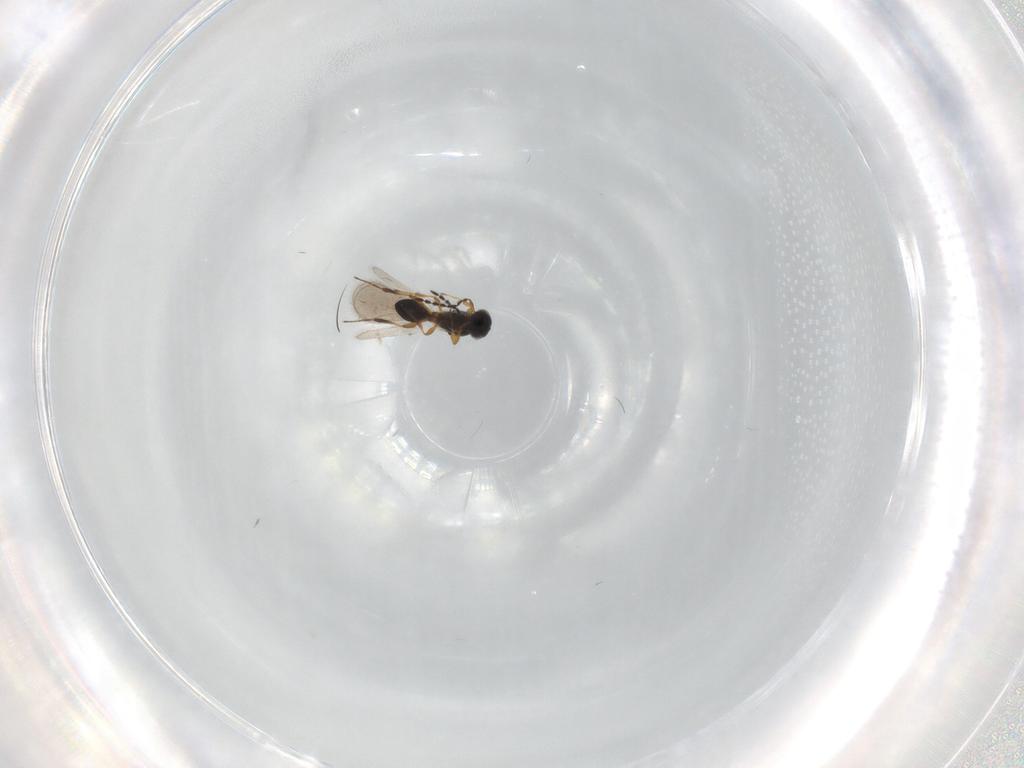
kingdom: Animalia
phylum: Arthropoda
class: Insecta
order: Hymenoptera
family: Platygastridae
